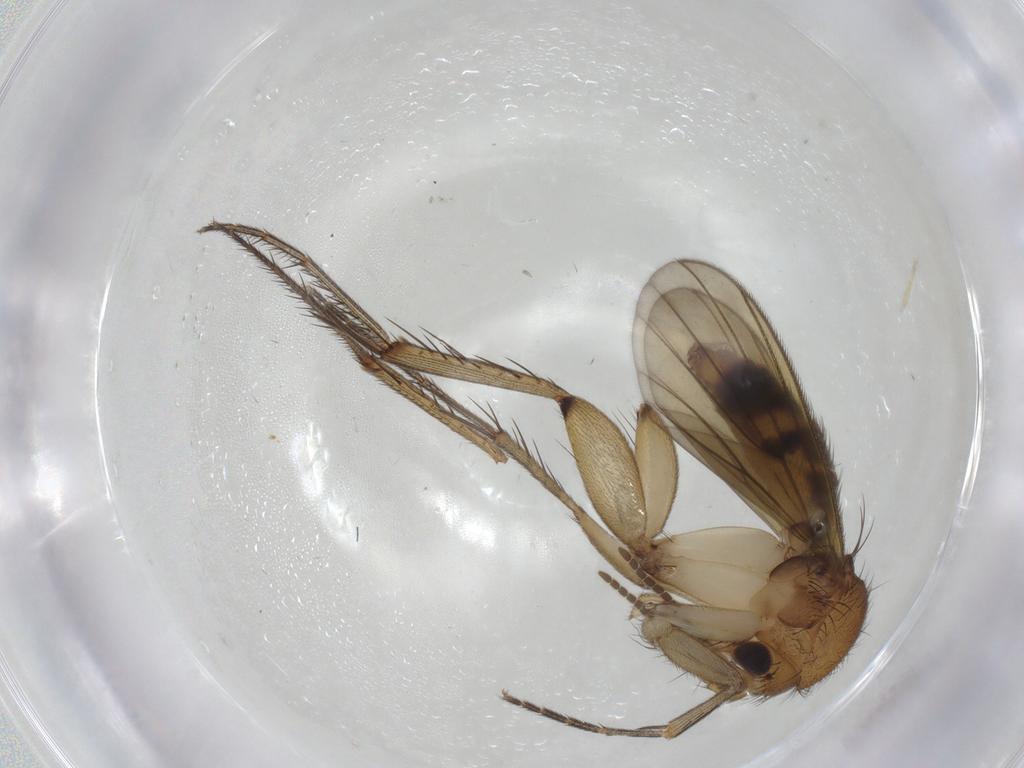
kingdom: Animalia
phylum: Arthropoda
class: Insecta
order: Diptera
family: Mycetophilidae
